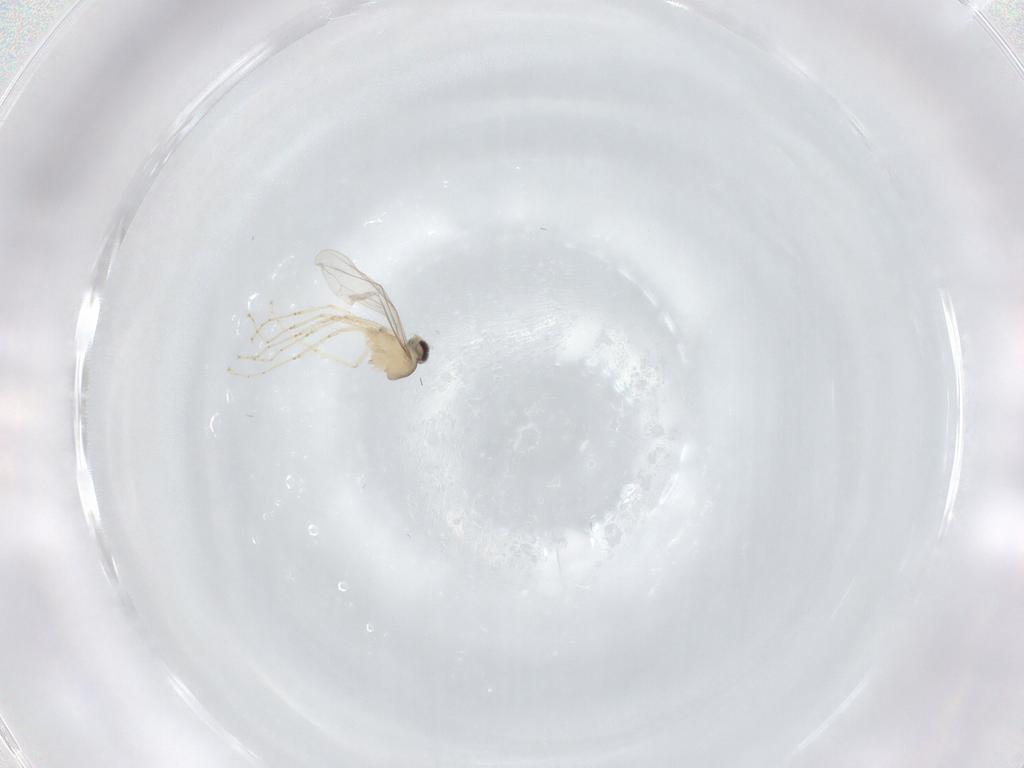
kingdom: Animalia
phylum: Arthropoda
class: Insecta
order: Diptera
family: Cecidomyiidae
